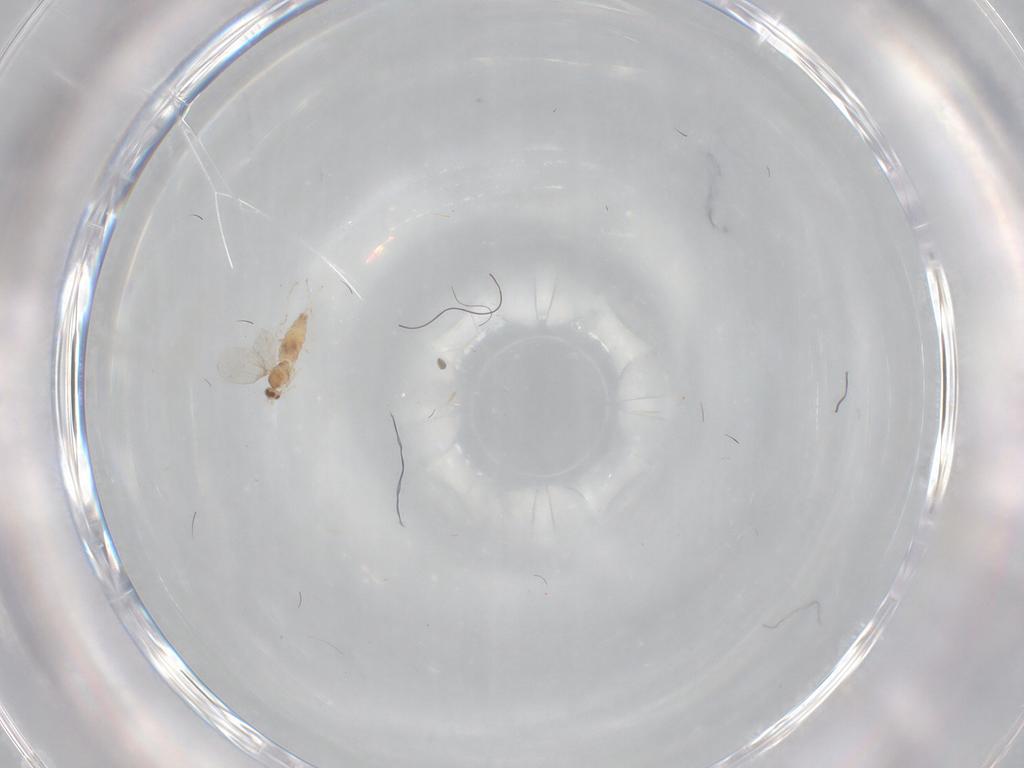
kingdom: Animalia
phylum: Arthropoda
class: Insecta
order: Diptera
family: Cecidomyiidae
